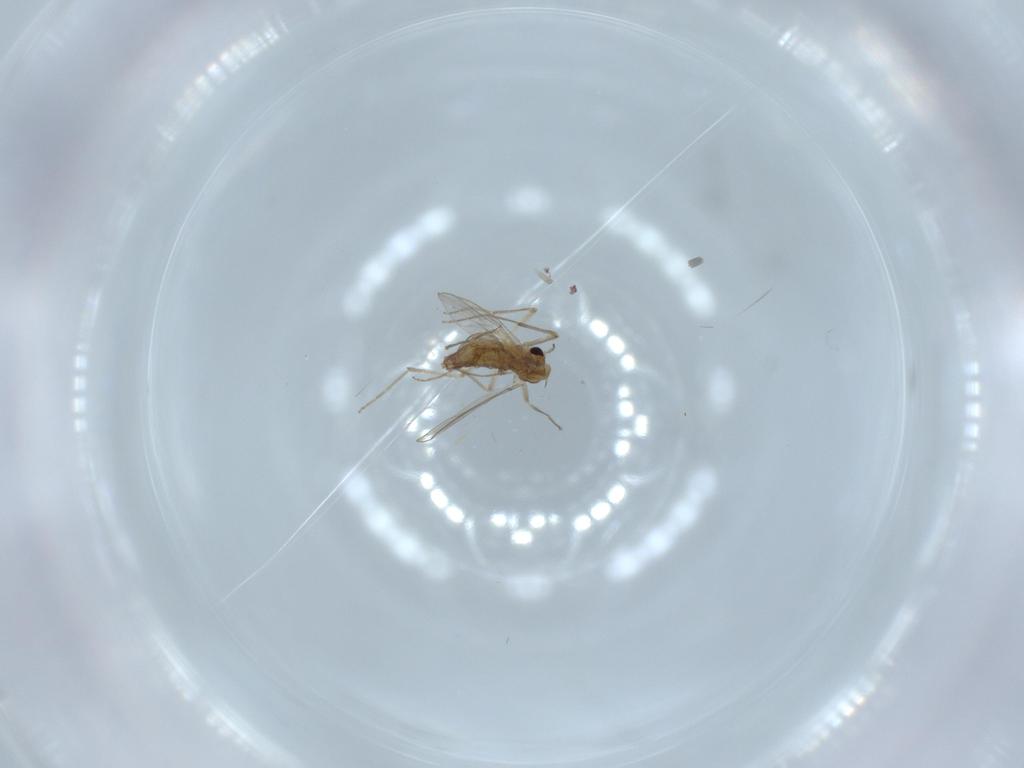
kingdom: Animalia
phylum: Arthropoda
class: Insecta
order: Diptera
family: Chironomidae
